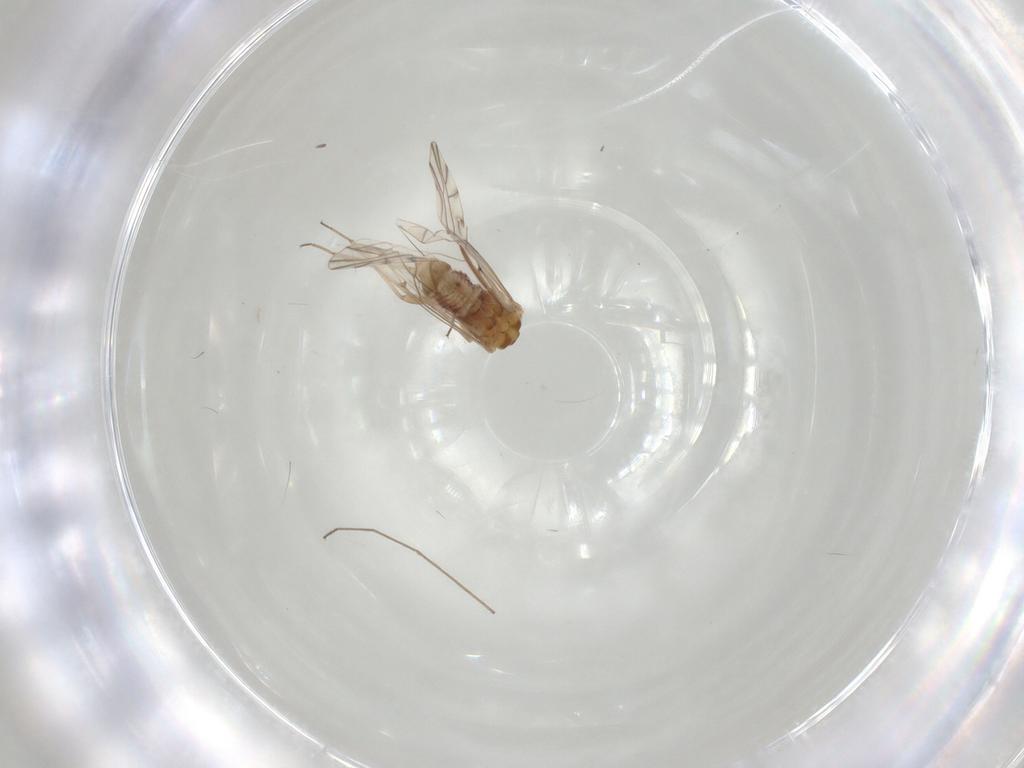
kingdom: Animalia
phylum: Arthropoda
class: Insecta
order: Psocodea
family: Lachesillidae
